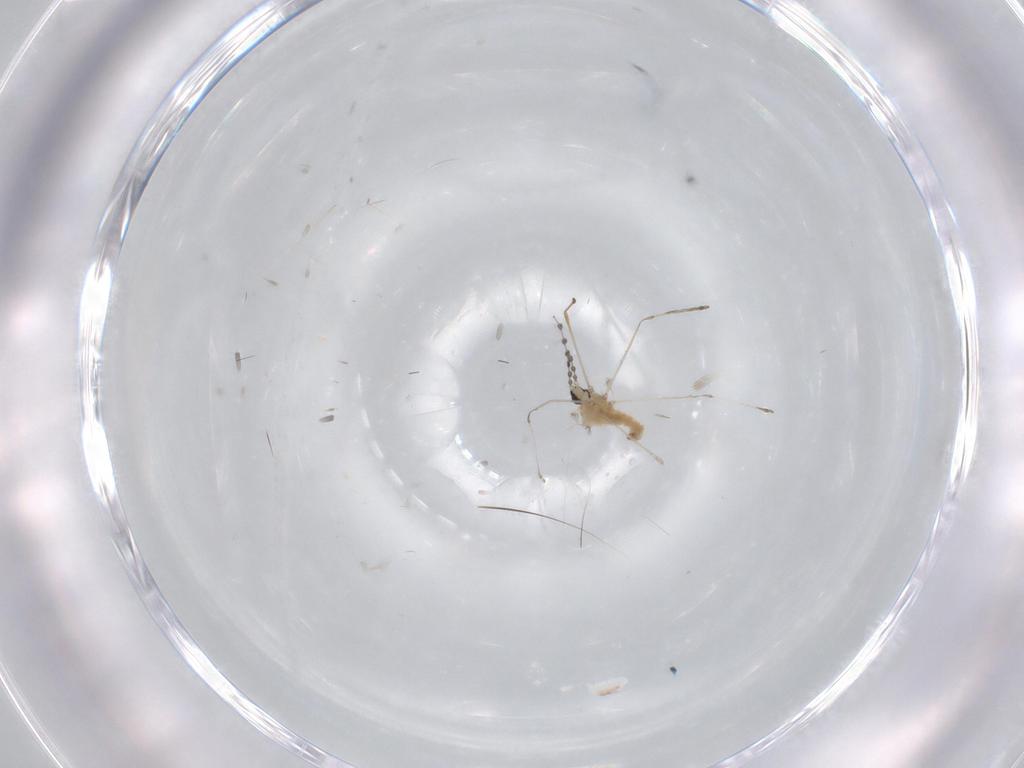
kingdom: Animalia
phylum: Arthropoda
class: Insecta
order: Diptera
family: Cecidomyiidae
